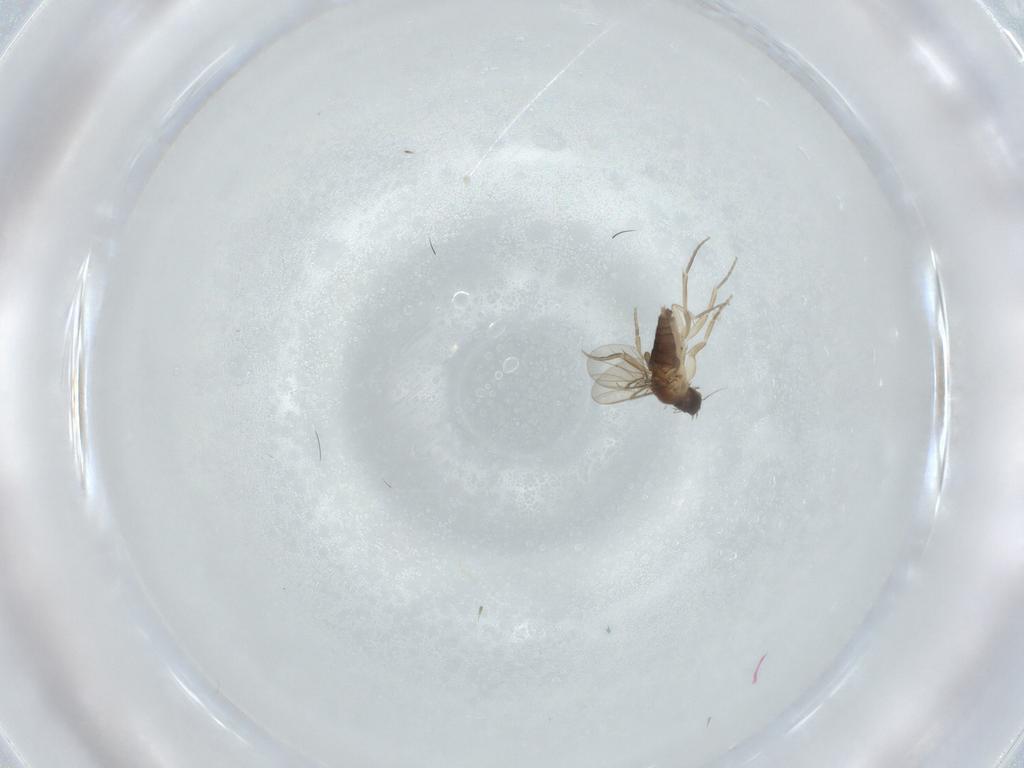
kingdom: Animalia
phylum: Arthropoda
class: Insecta
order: Diptera
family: Phoridae
